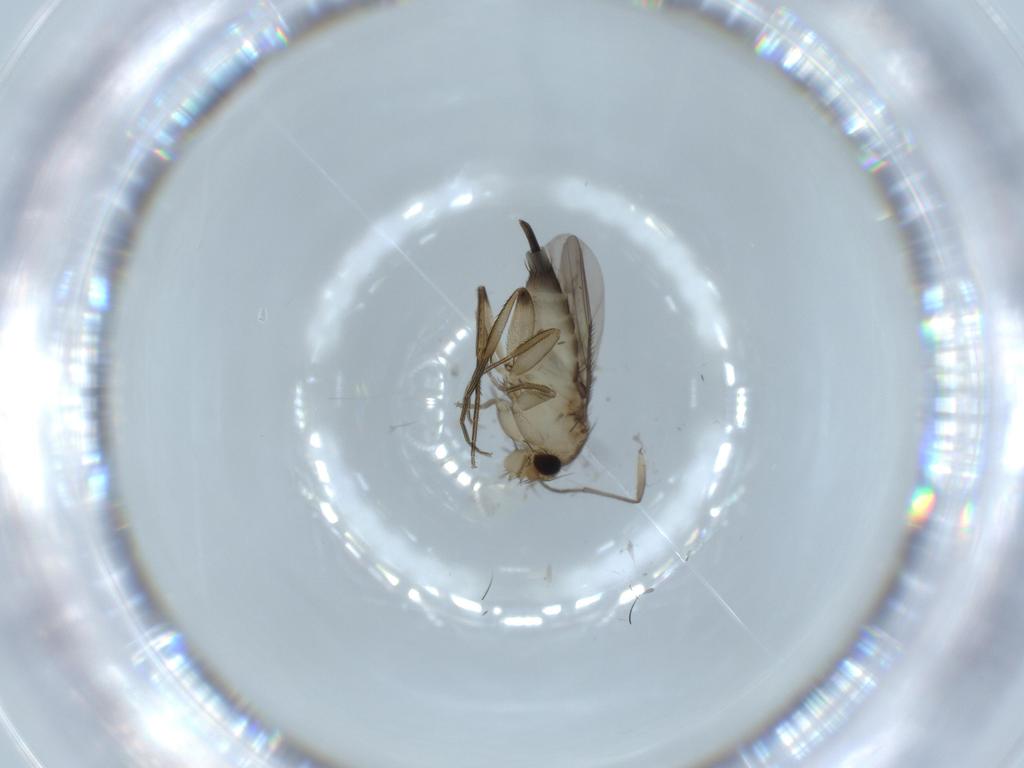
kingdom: Animalia
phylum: Arthropoda
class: Insecta
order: Diptera
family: Phoridae
